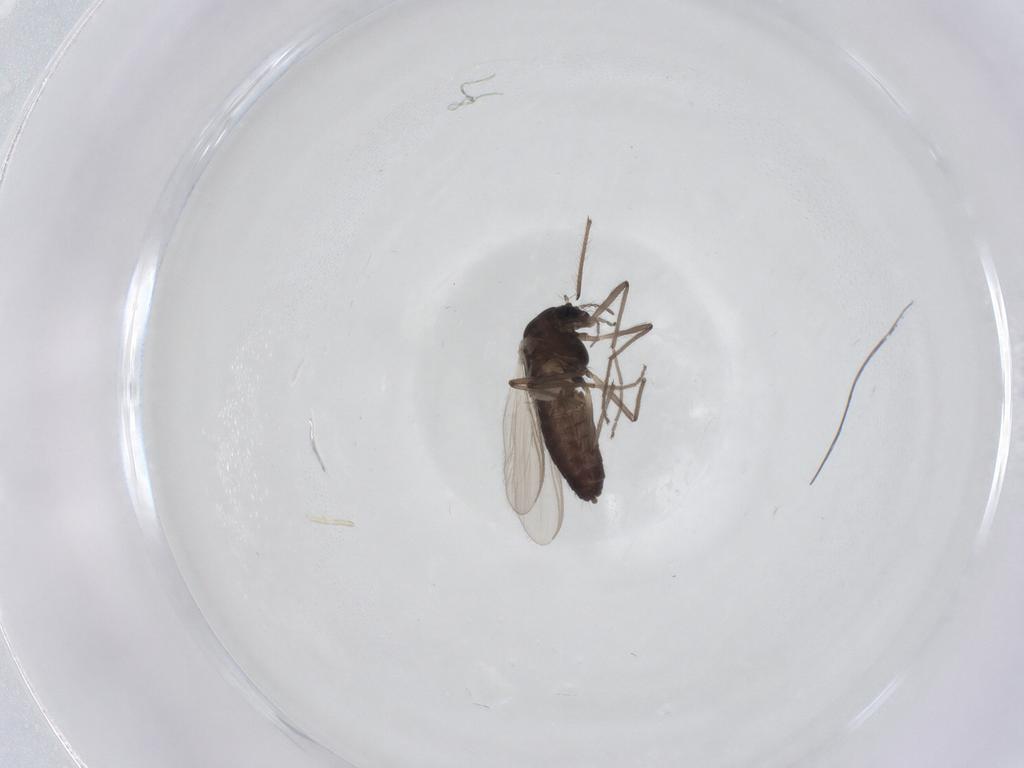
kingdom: Animalia
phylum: Arthropoda
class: Insecta
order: Diptera
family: Chironomidae
